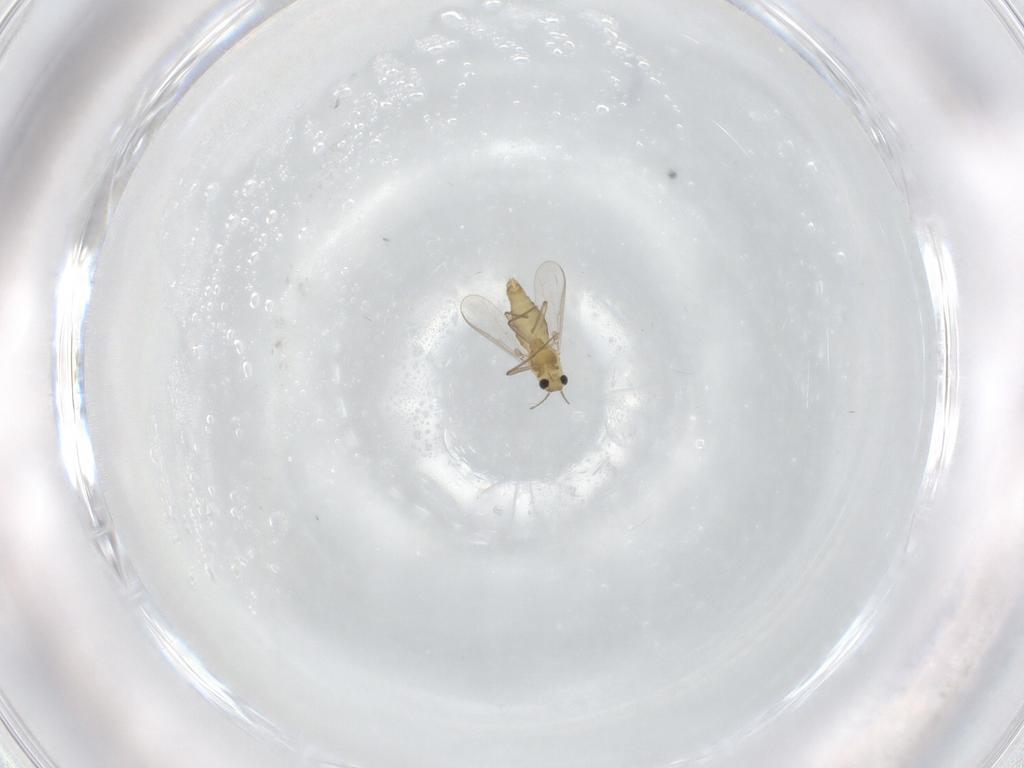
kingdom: Animalia
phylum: Arthropoda
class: Insecta
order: Diptera
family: Chironomidae
